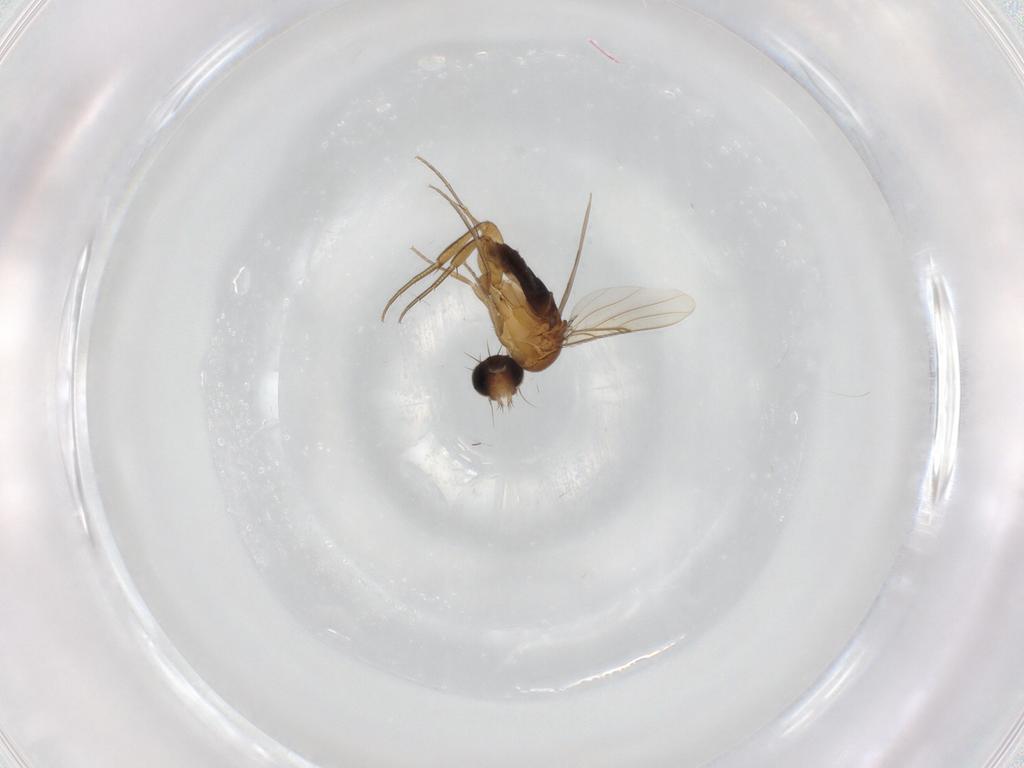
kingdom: Animalia
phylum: Arthropoda
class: Insecta
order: Diptera
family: Phoridae
